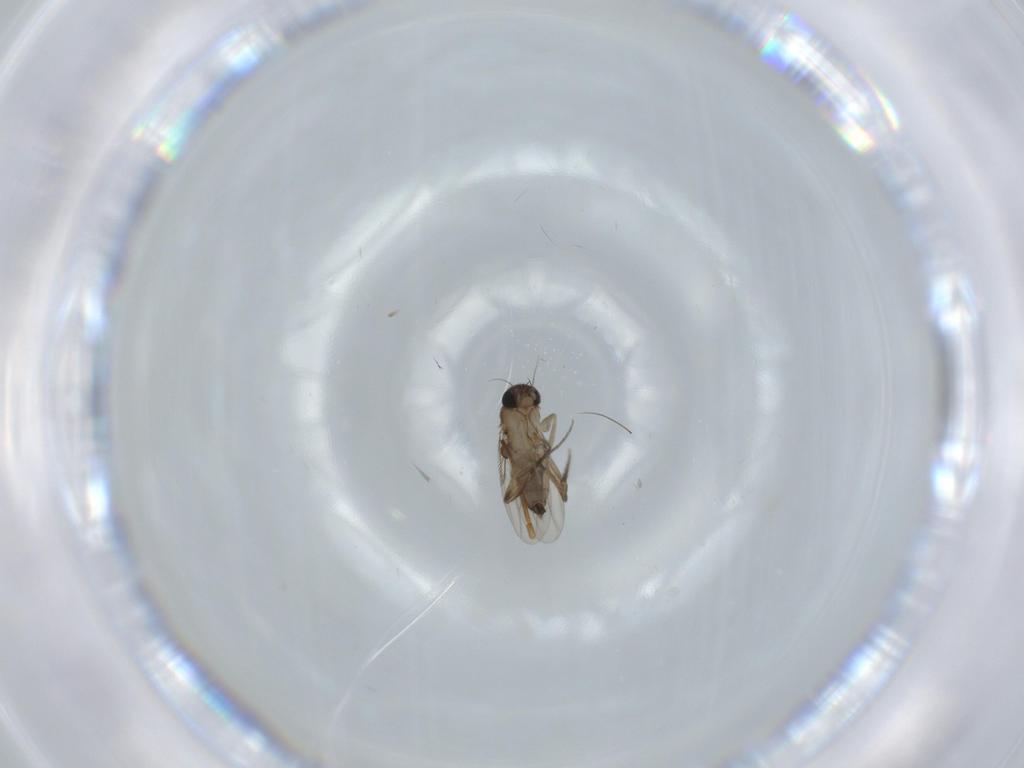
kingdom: Animalia
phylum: Arthropoda
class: Insecta
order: Diptera
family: Phoridae
